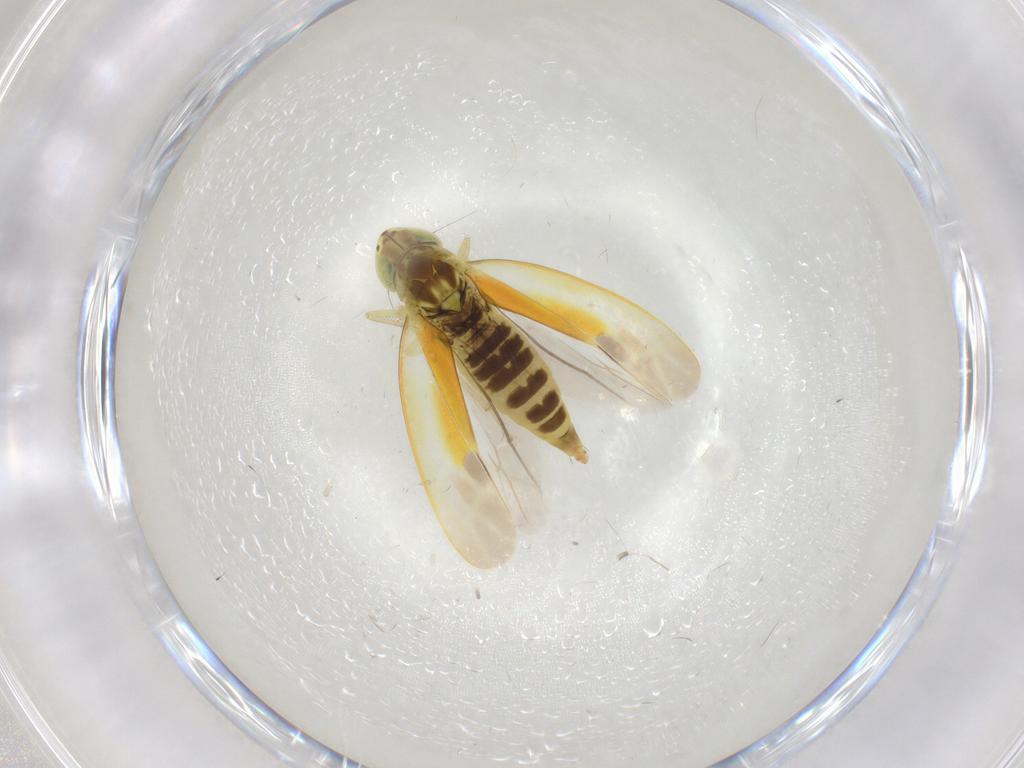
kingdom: Animalia
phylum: Arthropoda
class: Insecta
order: Hemiptera
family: Cicadellidae
